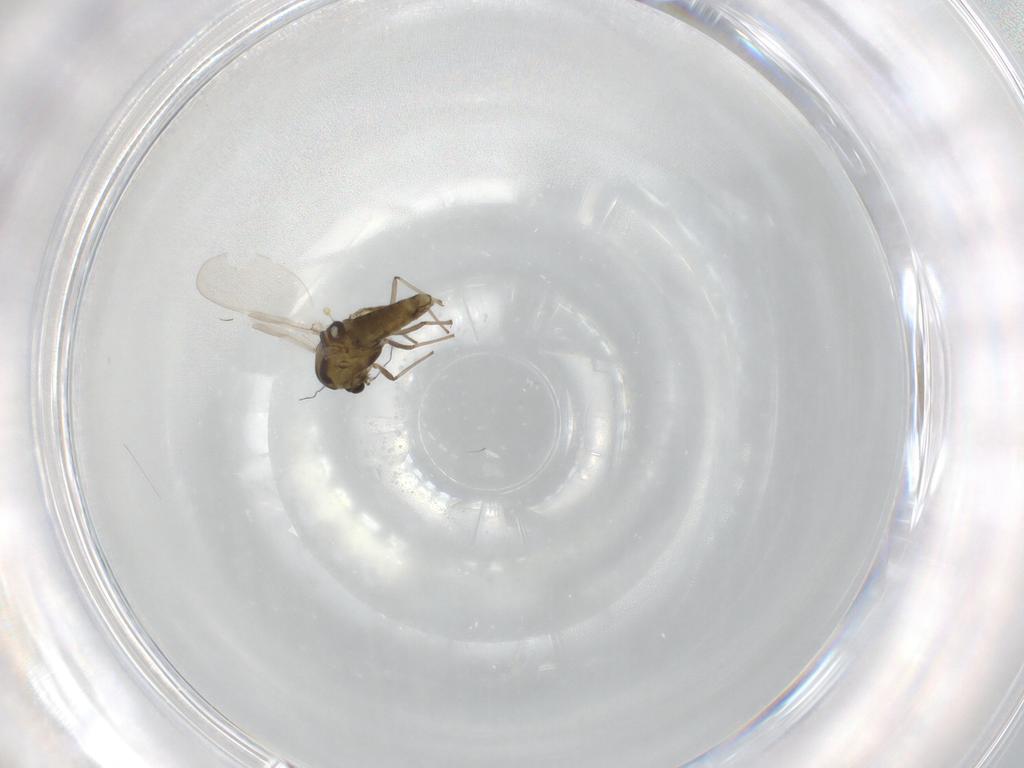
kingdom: Animalia
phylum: Arthropoda
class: Insecta
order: Diptera
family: Chironomidae
